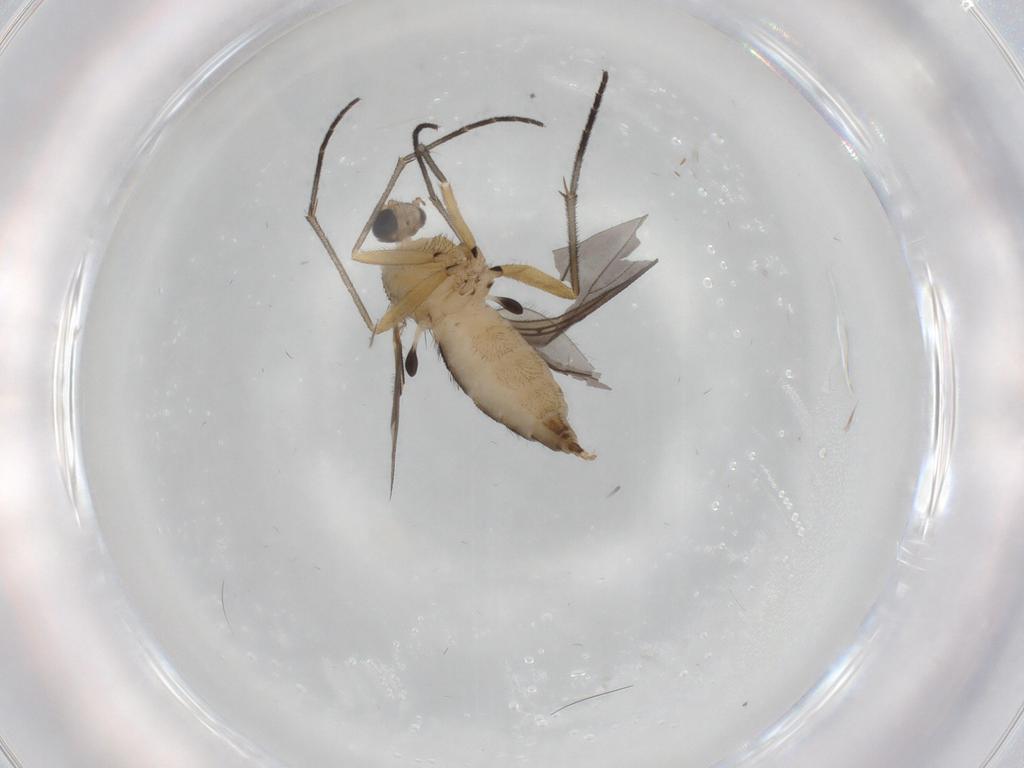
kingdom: Animalia
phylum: Arthropoda
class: Insecta
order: Diptera
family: Sciaridae
